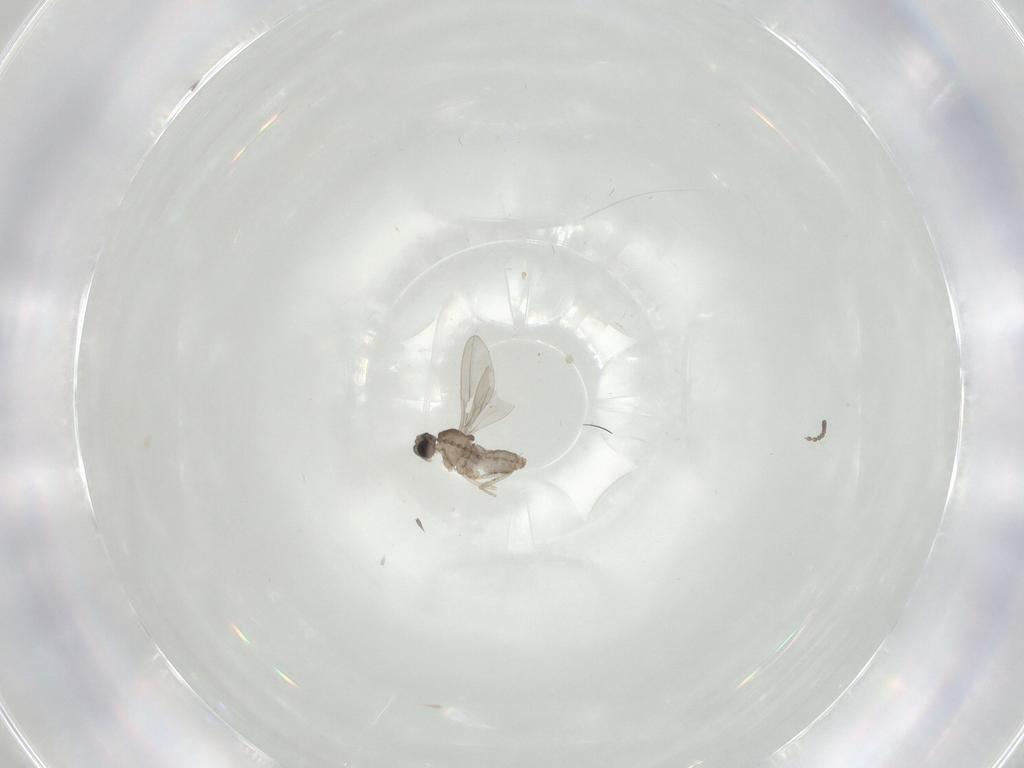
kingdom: Animalia
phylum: Arthropoda
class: Insecta
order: Diptera
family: Cecidomyiidae
